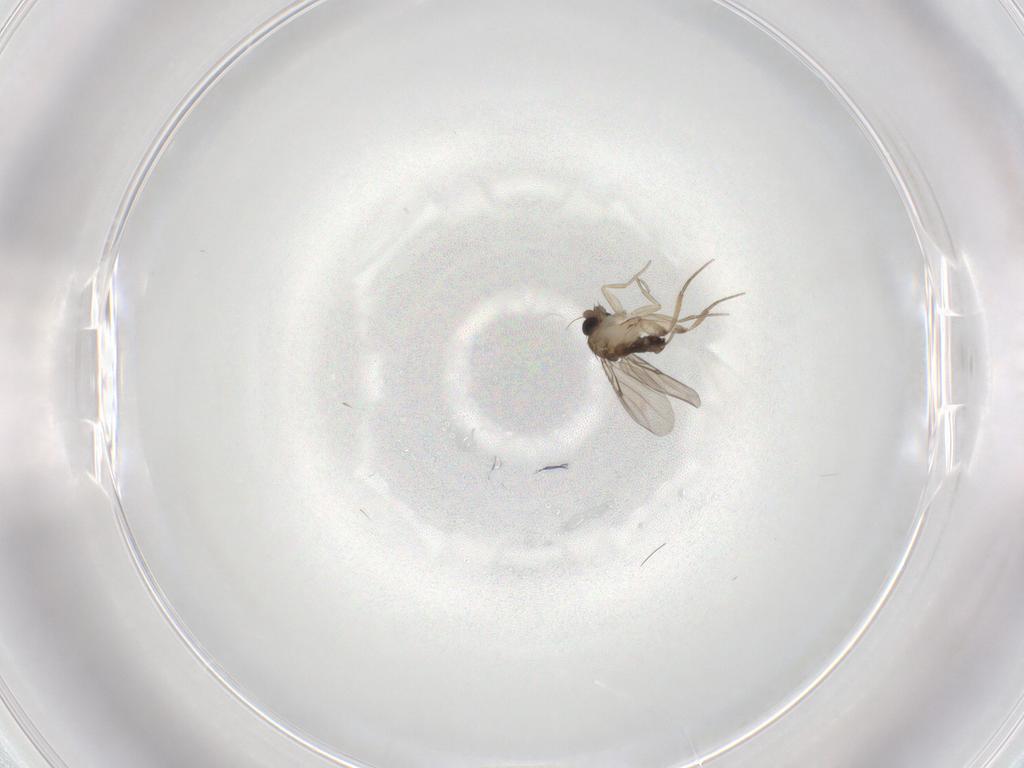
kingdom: Animalia
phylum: Arthropoda
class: Insecta
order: Diptera
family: Phoridae
